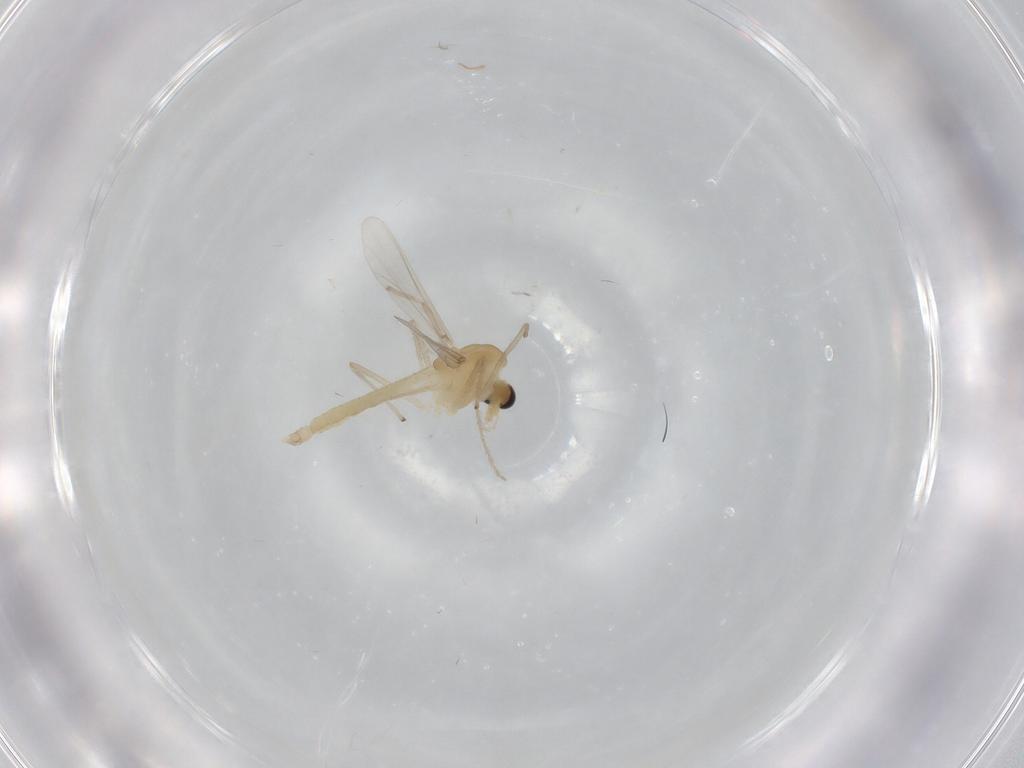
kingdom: Animalia
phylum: Arthropoda
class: Insecta
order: Diptera
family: Chironomidae
